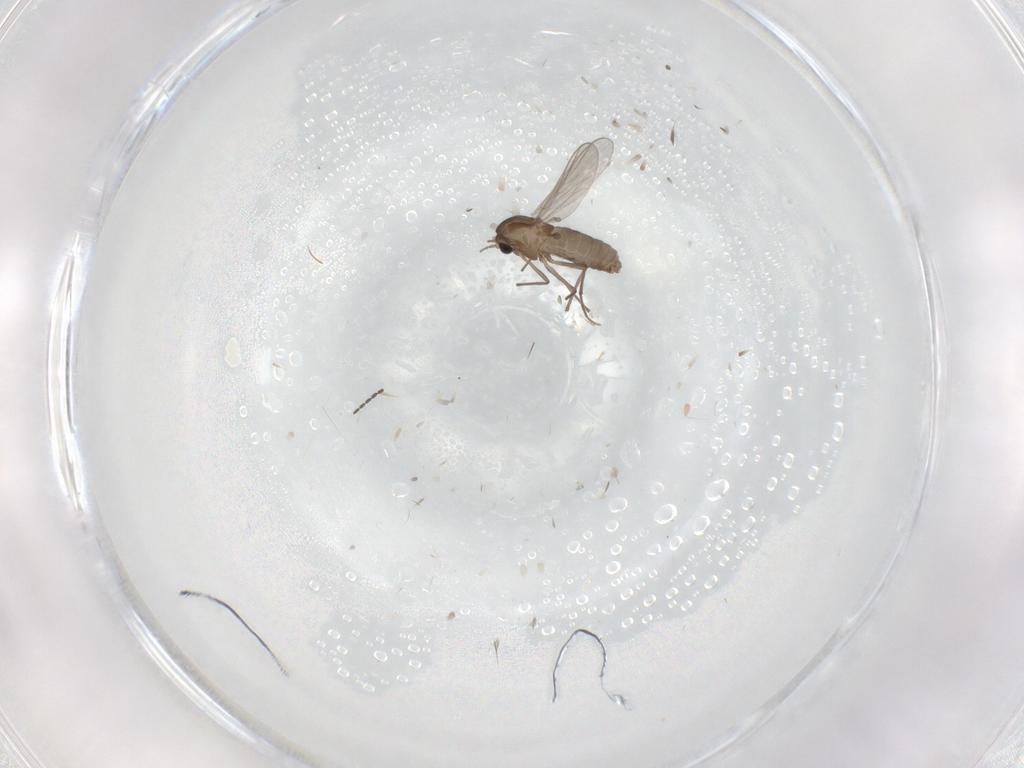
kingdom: Animalia
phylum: Arthropoda
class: Insecta
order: Diptera
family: Chironomidae
